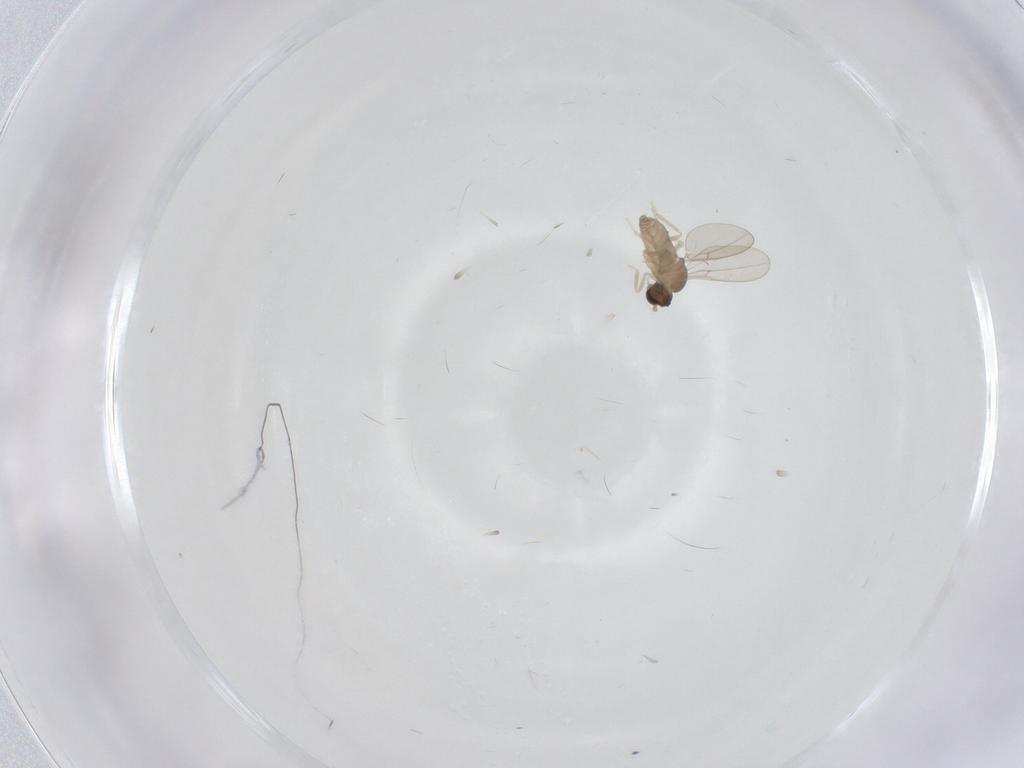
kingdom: Animalia
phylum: Arthropoda
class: Insecta
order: Diptera
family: Cecidomyiidae
